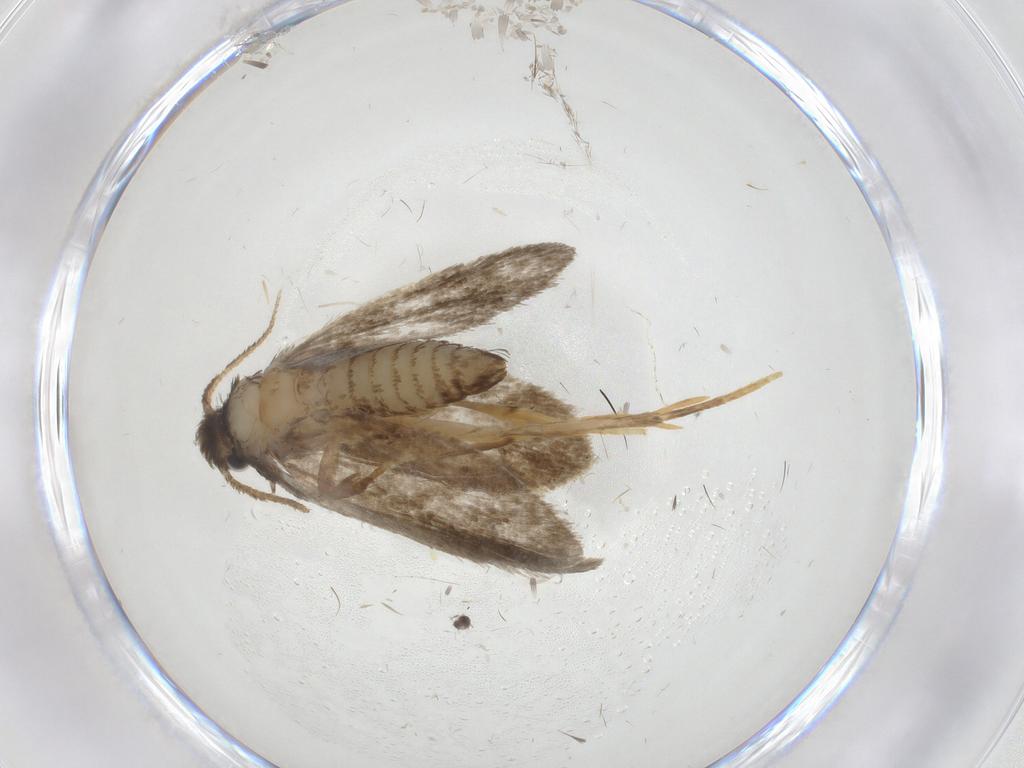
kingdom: Animalia
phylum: Arthropoda
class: Insecta
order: Lepidoptera
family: Psychidae
